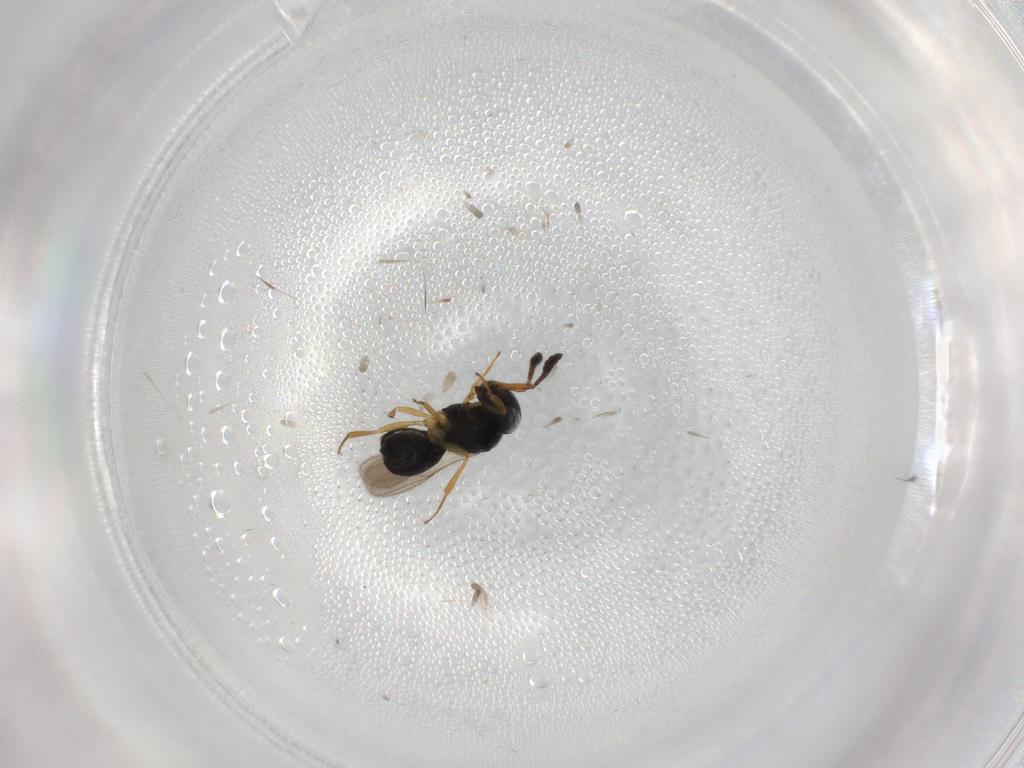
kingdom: Animalia
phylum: Arthropoda
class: Insecta
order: Hymenoptera
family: Scelionidae
